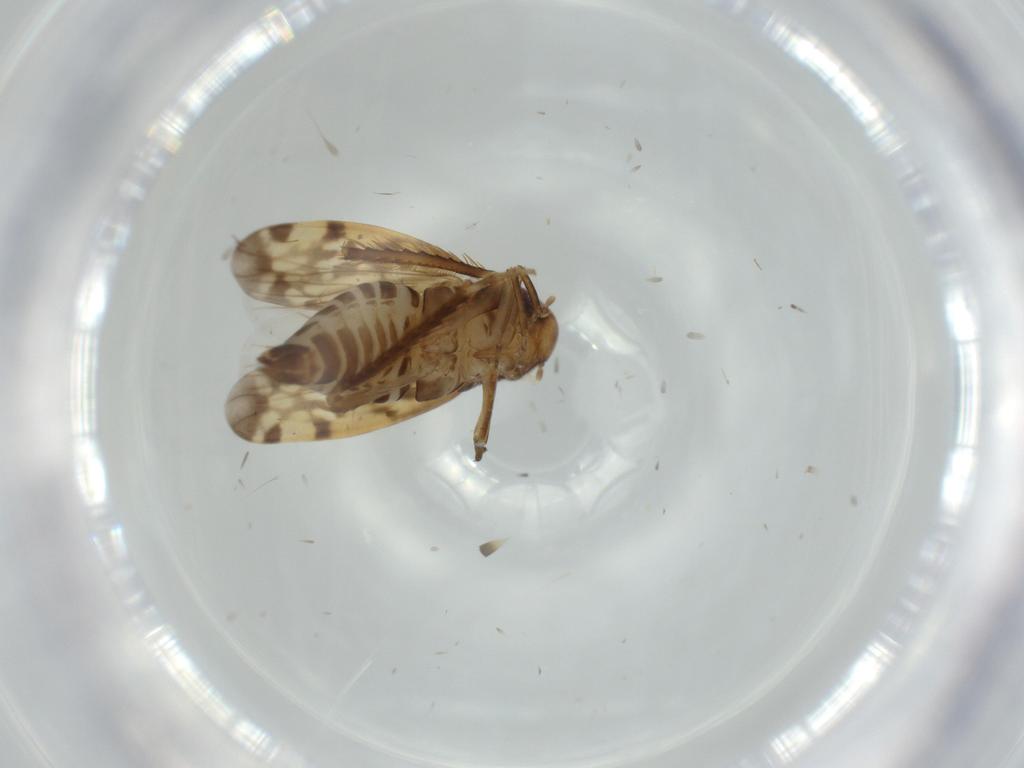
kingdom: Animalia
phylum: Arthropoda
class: Insecta
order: Hemiptera
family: Cicadellidae
